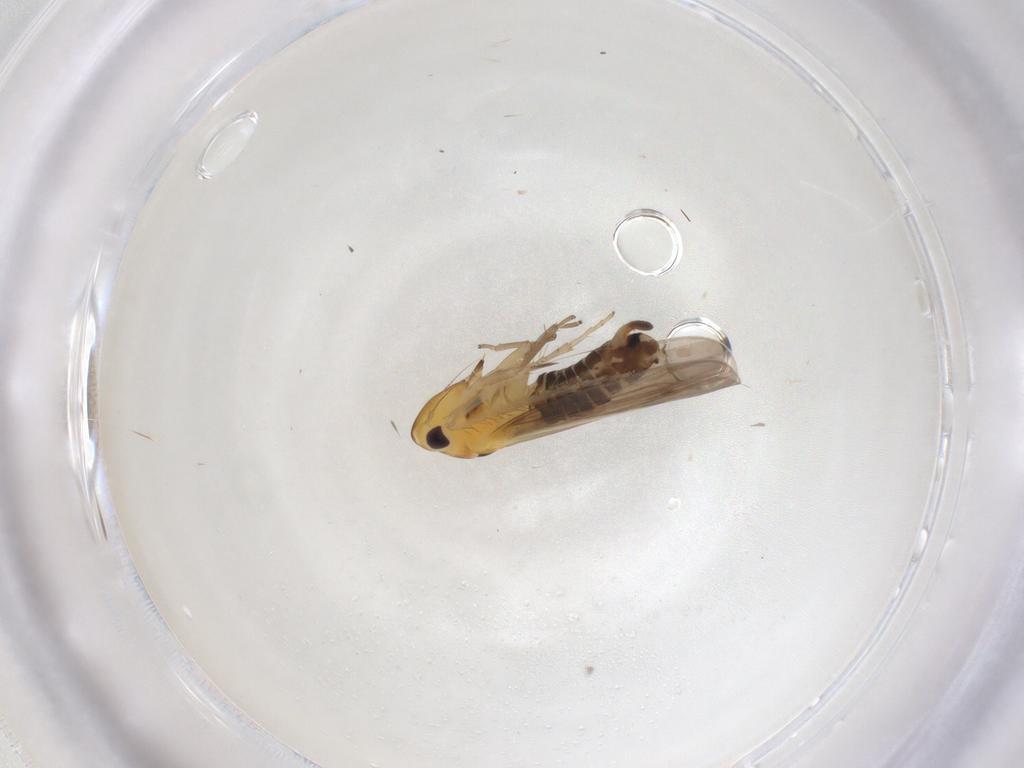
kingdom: Animalia
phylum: Arthropoda
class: Insecta
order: Hemiptera
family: Cicadellidae
